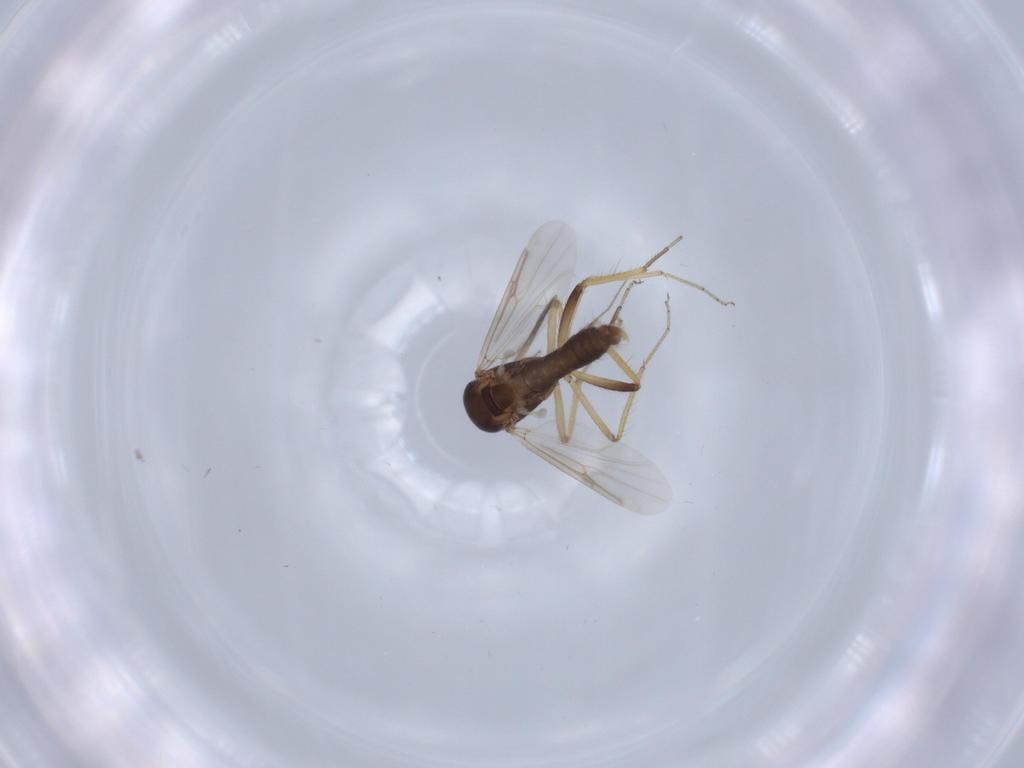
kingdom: Animalia
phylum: Arthropoda
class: Insecta
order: Diptera
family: Ceratopogonidae
